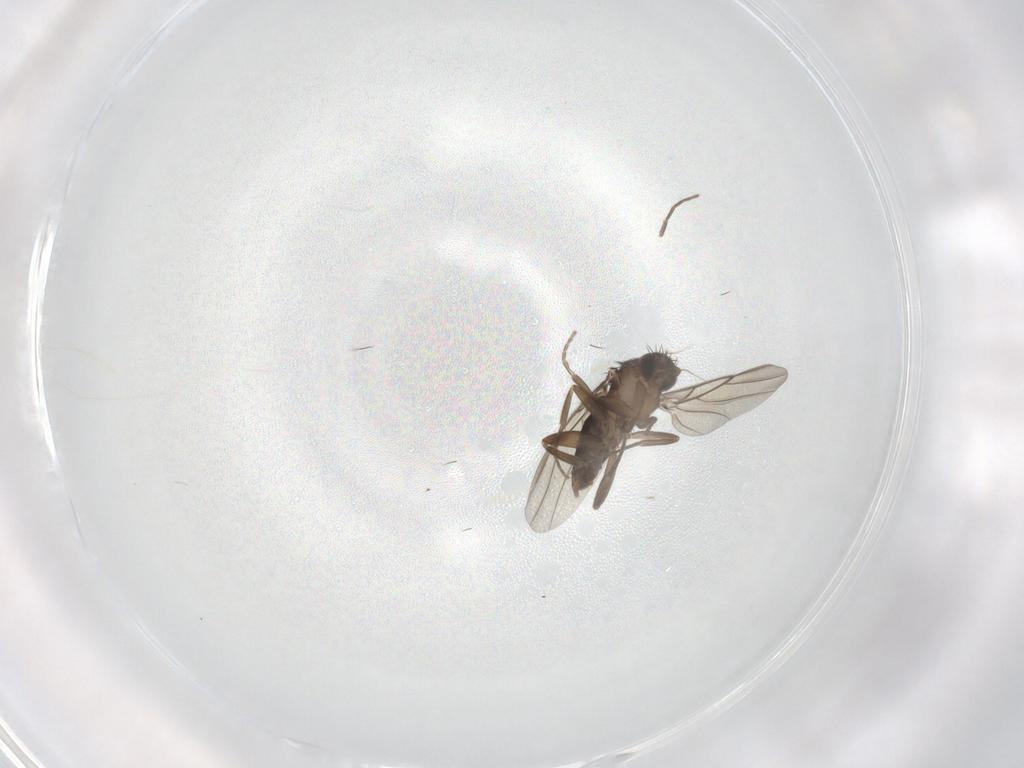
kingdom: Animalia
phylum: Arthropoda
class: Insecta
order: Diptera
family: Phoridae
